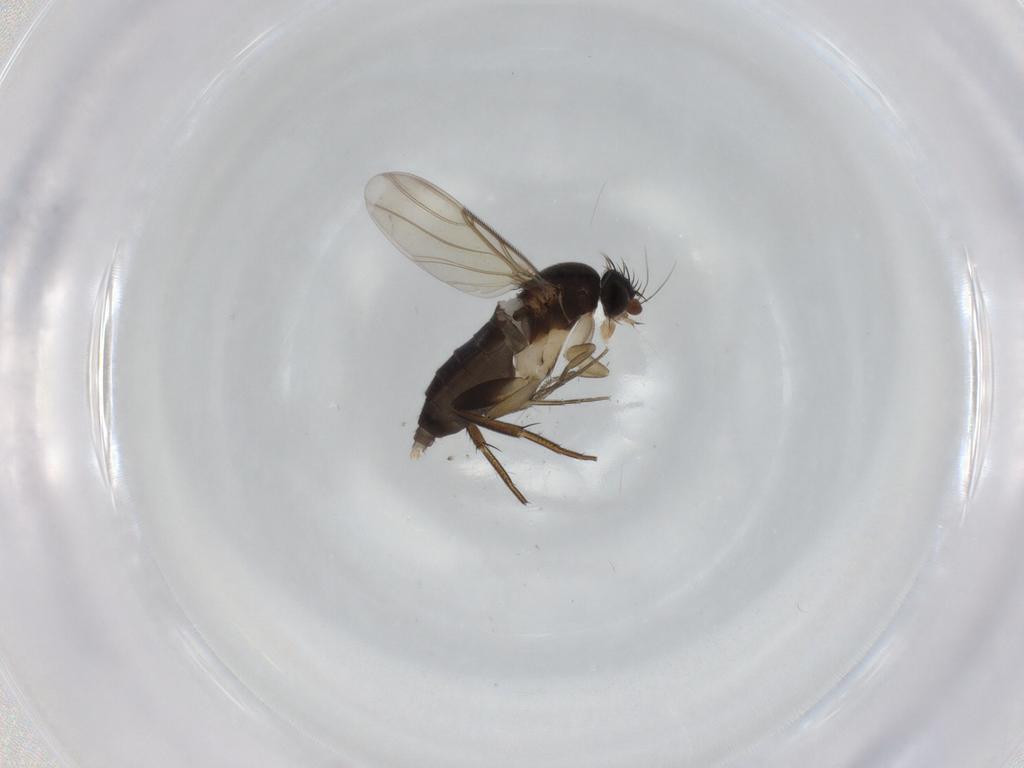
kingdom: Animalia
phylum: Arthropoda
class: Insecta
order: Diptera
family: Phoridae
